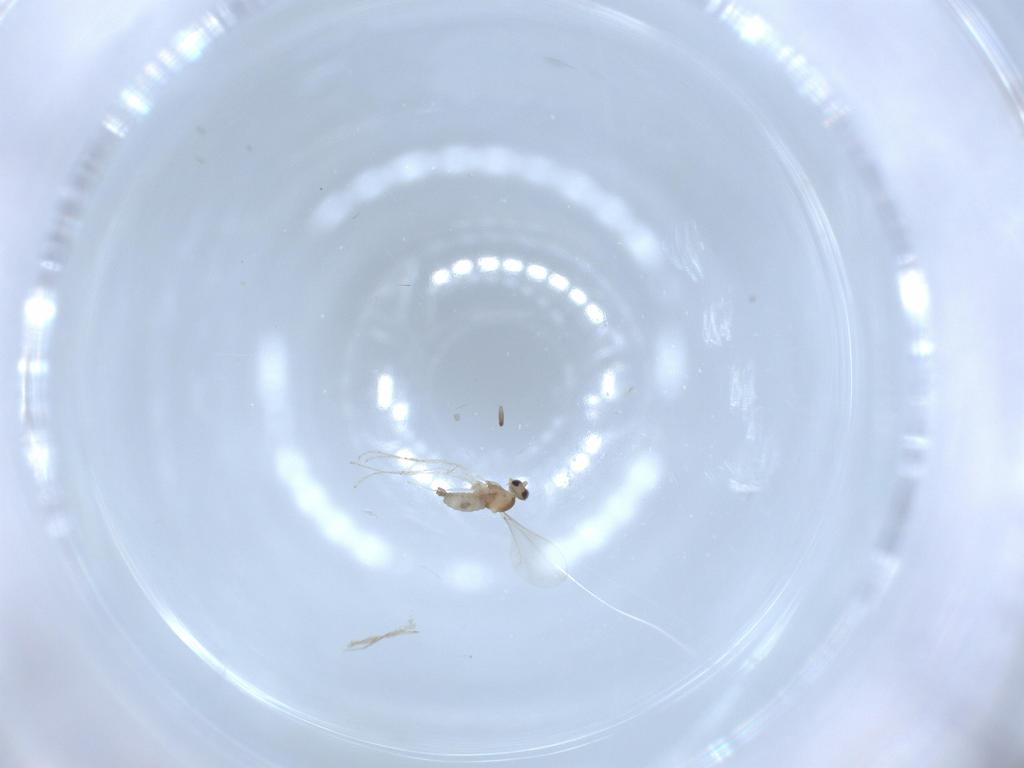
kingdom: Animalia
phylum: Arthropoda
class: Insecta
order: Diptera
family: Cecidomyiidae
